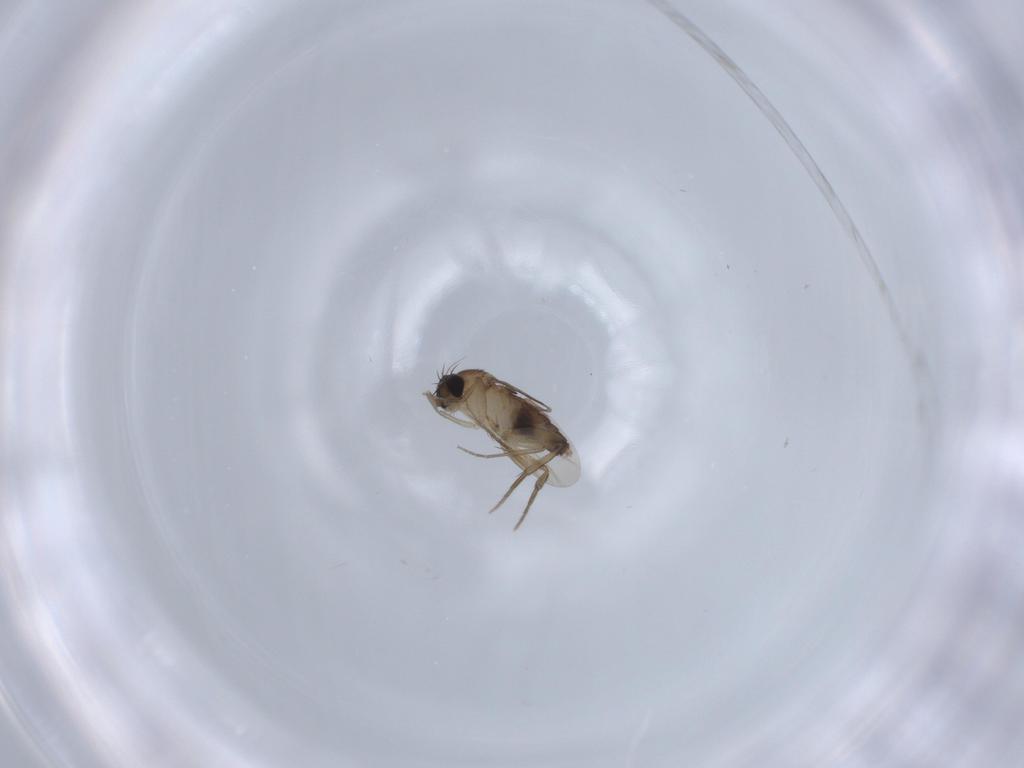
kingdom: Animalia
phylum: Arthropoda
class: Insecta
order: Diptera
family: Phoridae
